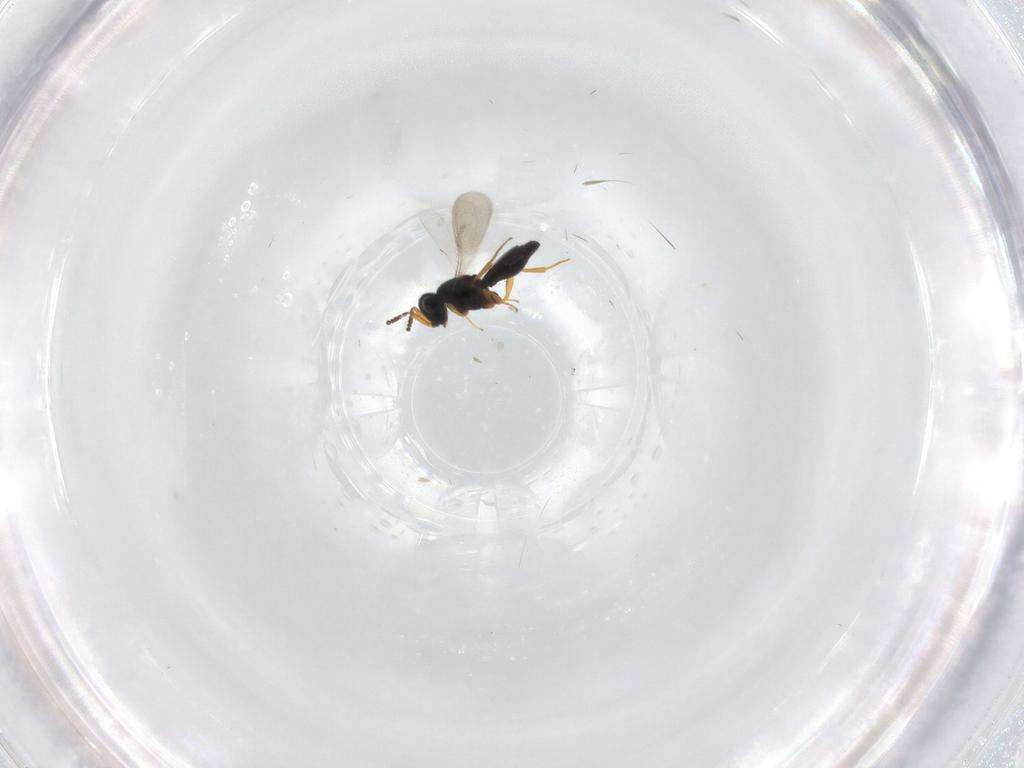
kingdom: Animalia
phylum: Arthropoda
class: Insecta
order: Hymenoptera
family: Scelionidae
